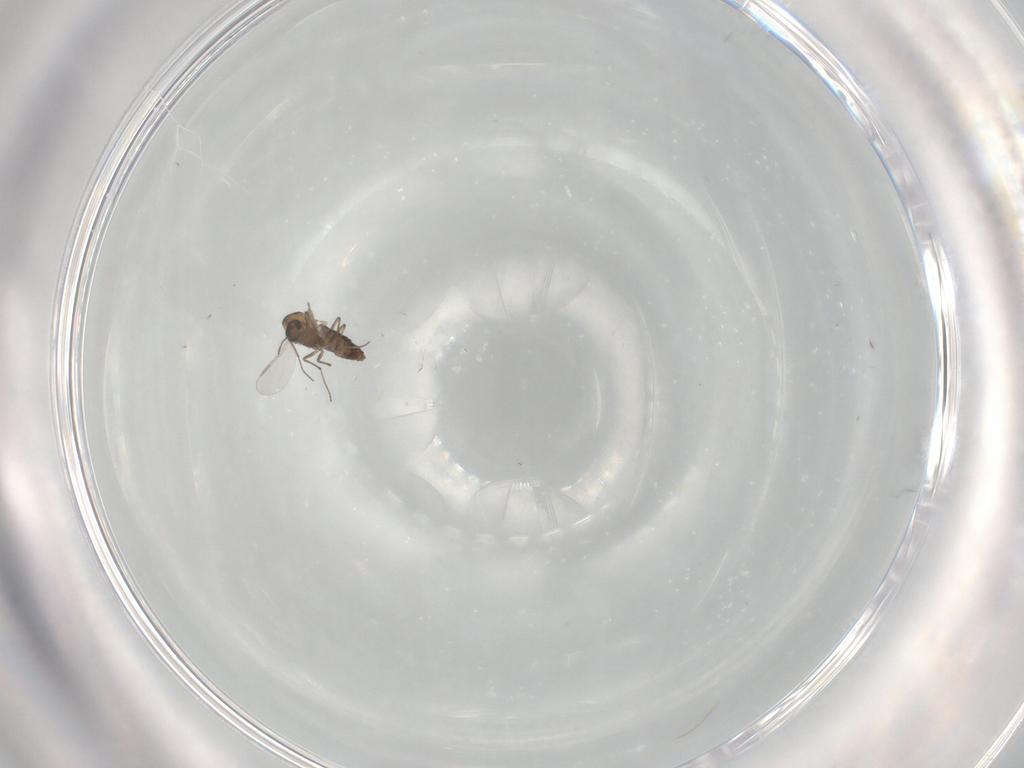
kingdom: Animalia
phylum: Arthropoda
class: Insecta
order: Diptera
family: Chironomidae
